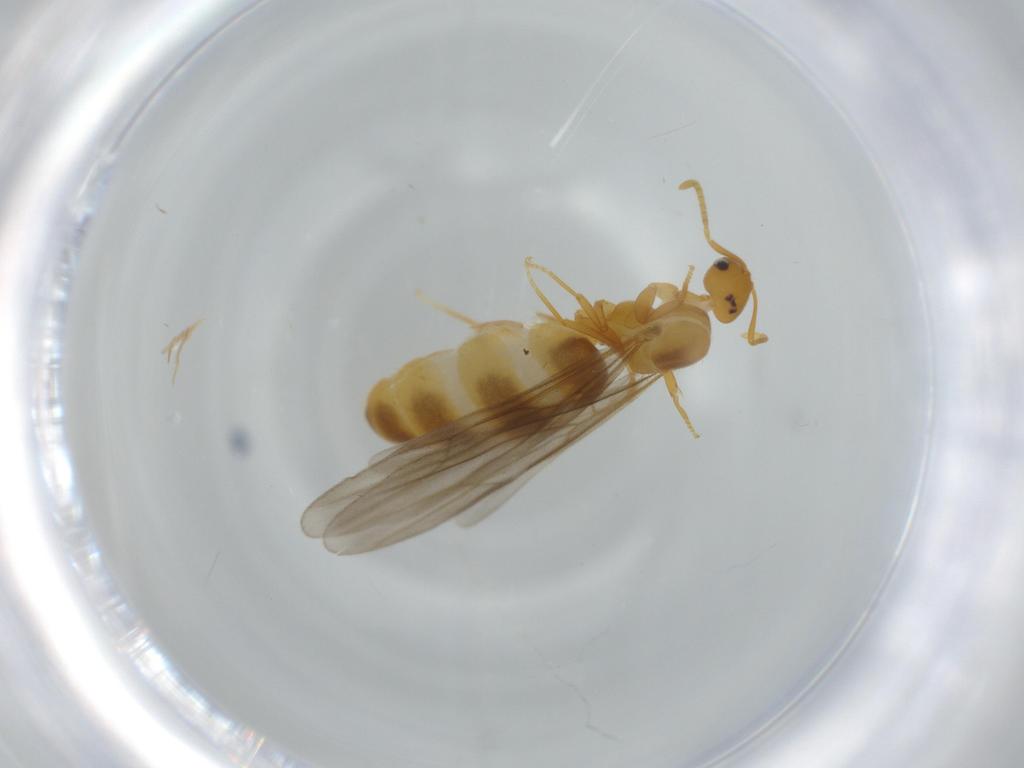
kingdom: Animalia
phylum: Arthropoda
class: Insecta
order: Hymenoptera
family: Formicidae
